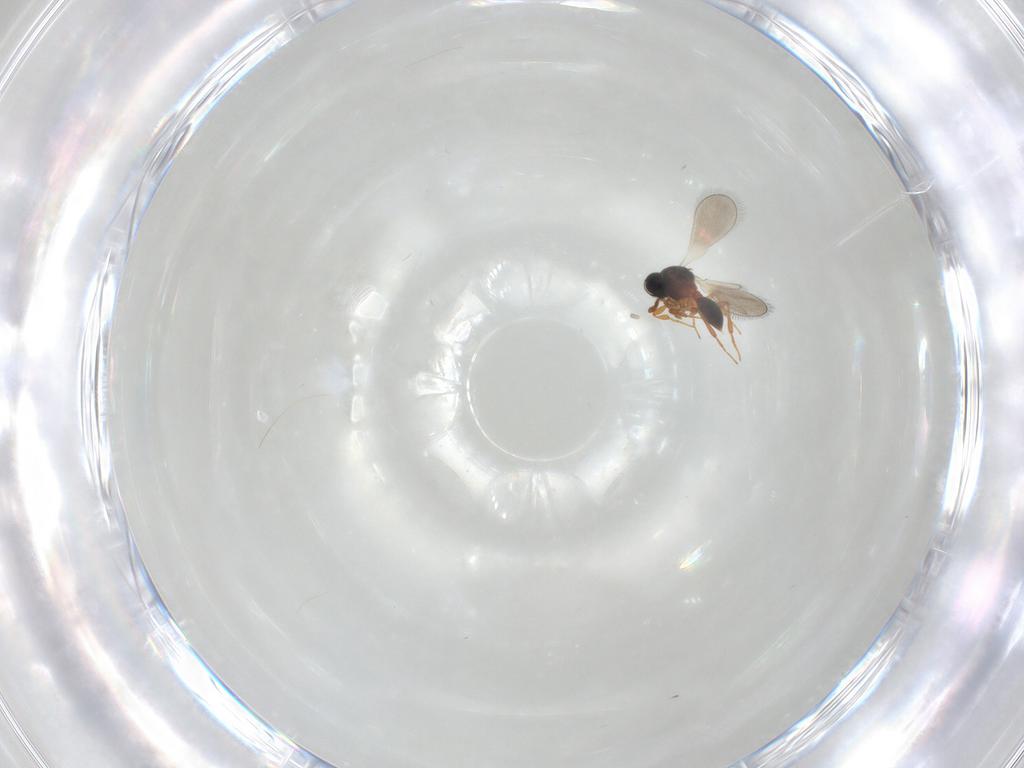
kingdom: Animalia
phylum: Arthropoda
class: Insecta
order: Hymenoptera
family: Platygastridae
